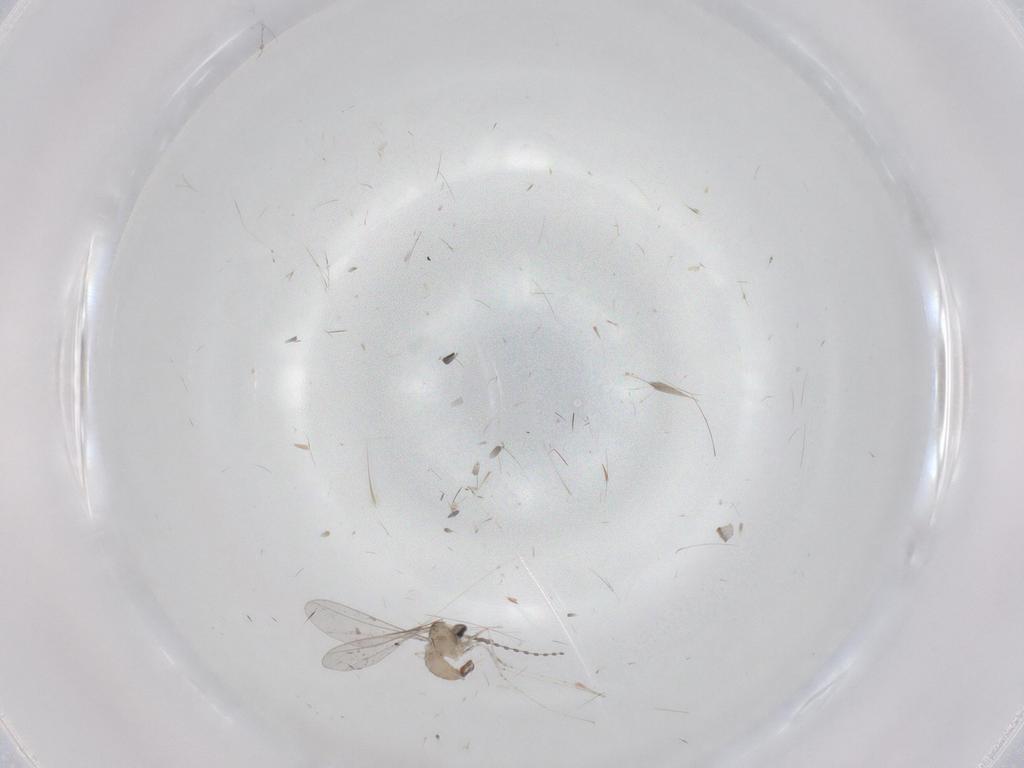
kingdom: Animalia
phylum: Arthropoda
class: Insecta
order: Diptera
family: Cecidomyiidae
